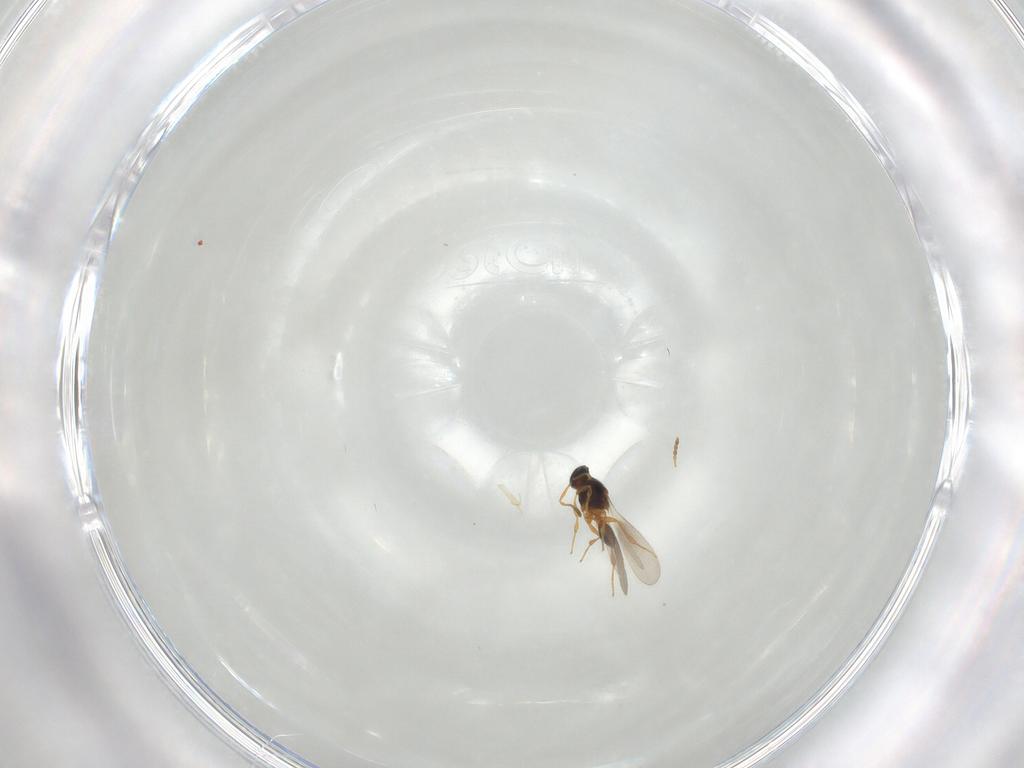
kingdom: Animalia
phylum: Arthropoda
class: Insecta
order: Hymenoptera
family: Platygastridae
